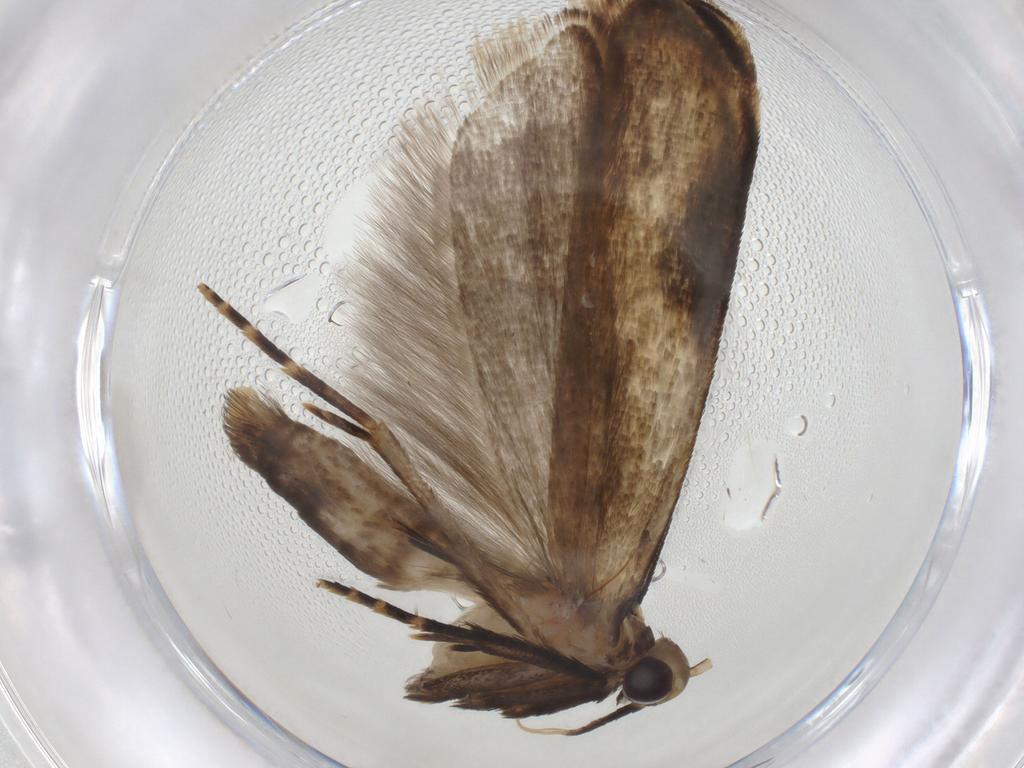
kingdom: Animalia
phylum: Arthropoda
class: Insecta
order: Lepidoptera
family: Gelechiidae
